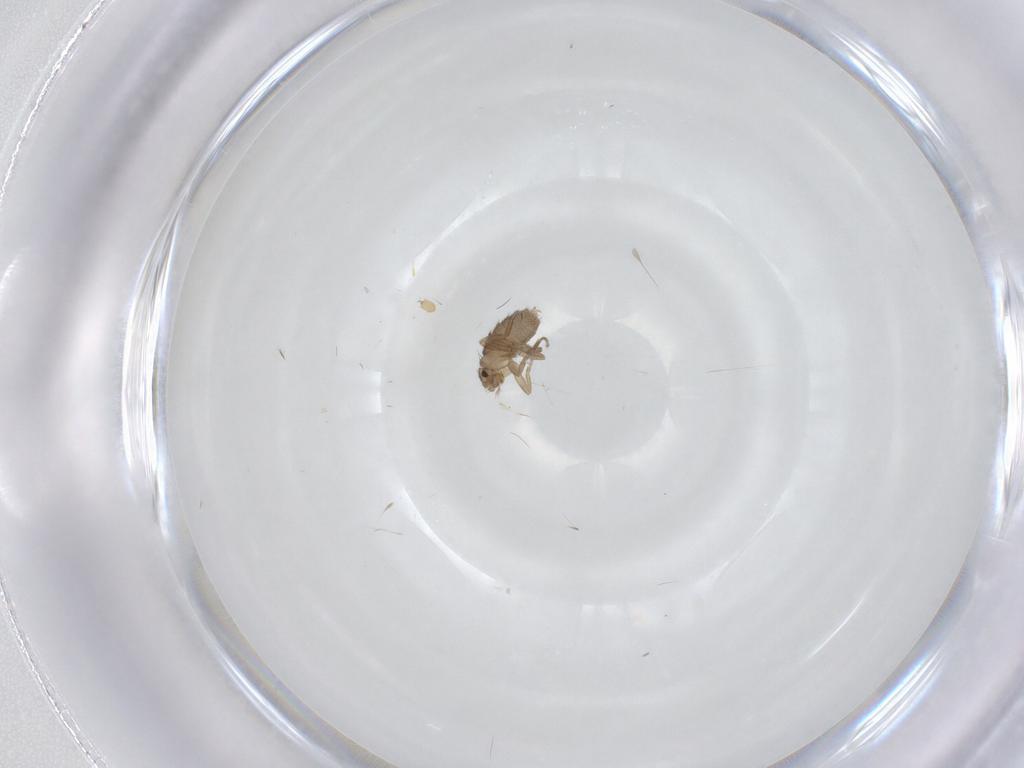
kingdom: Animalia
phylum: Arthropoda
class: Insecta
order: Diptera
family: Phoridae
